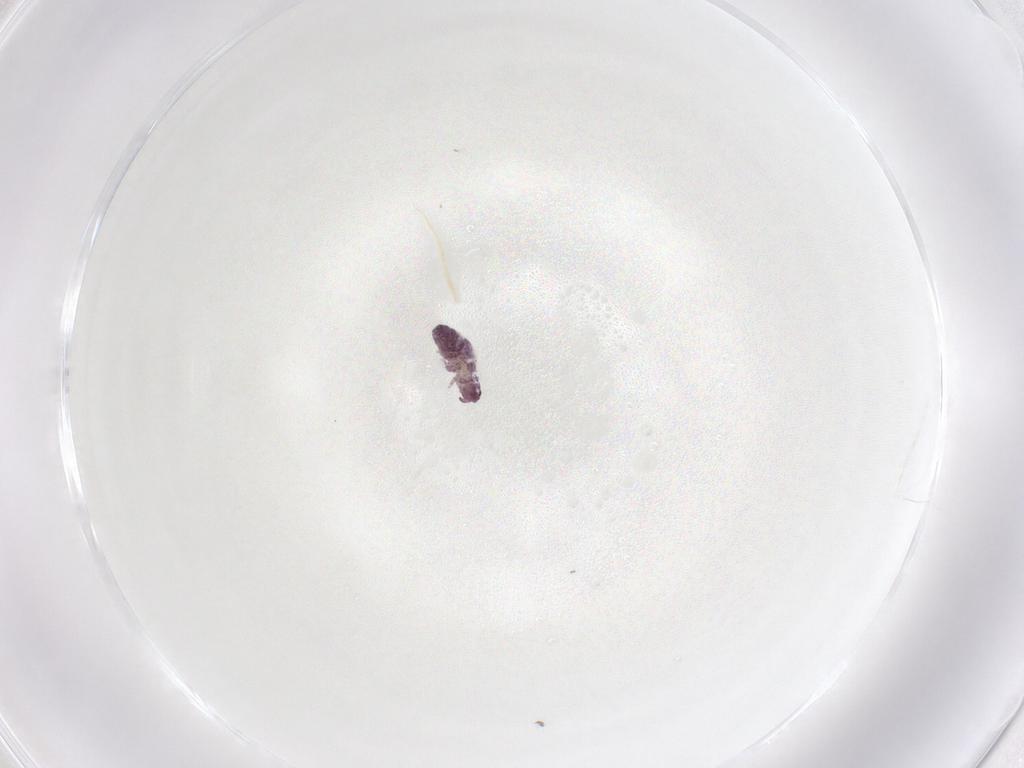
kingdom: Animalia
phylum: Arthropoda
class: Collembola
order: Poduromorpha
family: Brachystomellidae
